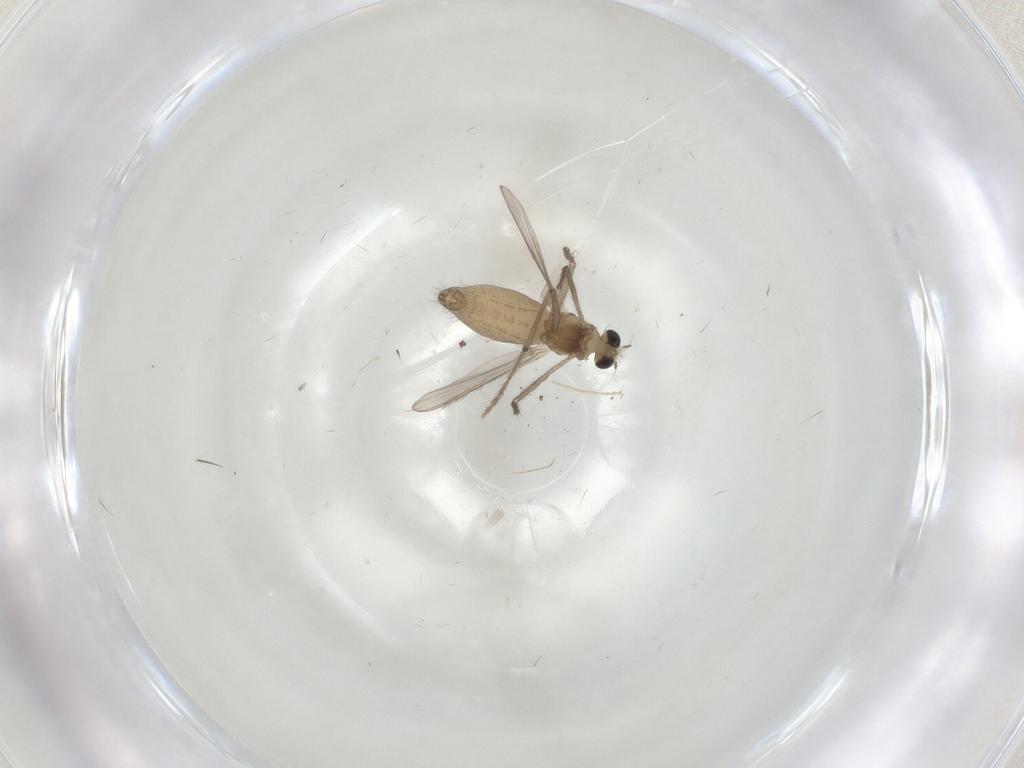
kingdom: Animalia
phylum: Arthropoda
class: Insecta
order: Diptera
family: Chironomidae
